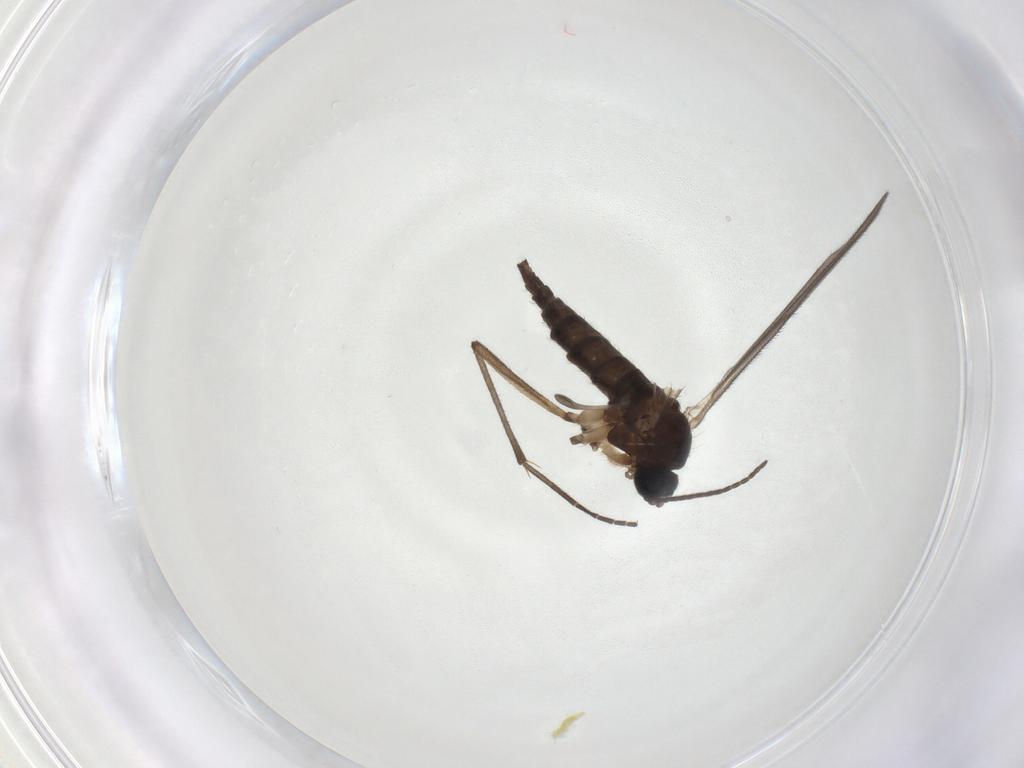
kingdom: Animalia
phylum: Arthropoda
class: Insecta
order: Diptera
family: Sciaridae
